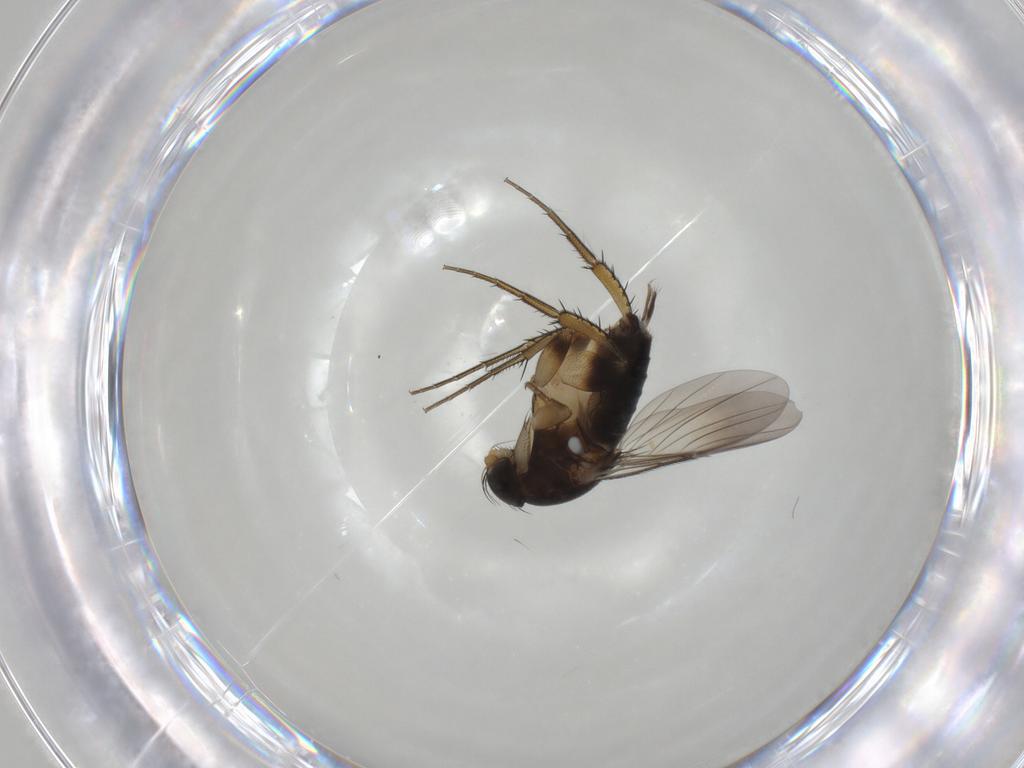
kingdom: Animalia
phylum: Arthropoda
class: Insecta
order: Diptera
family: Phoridae
